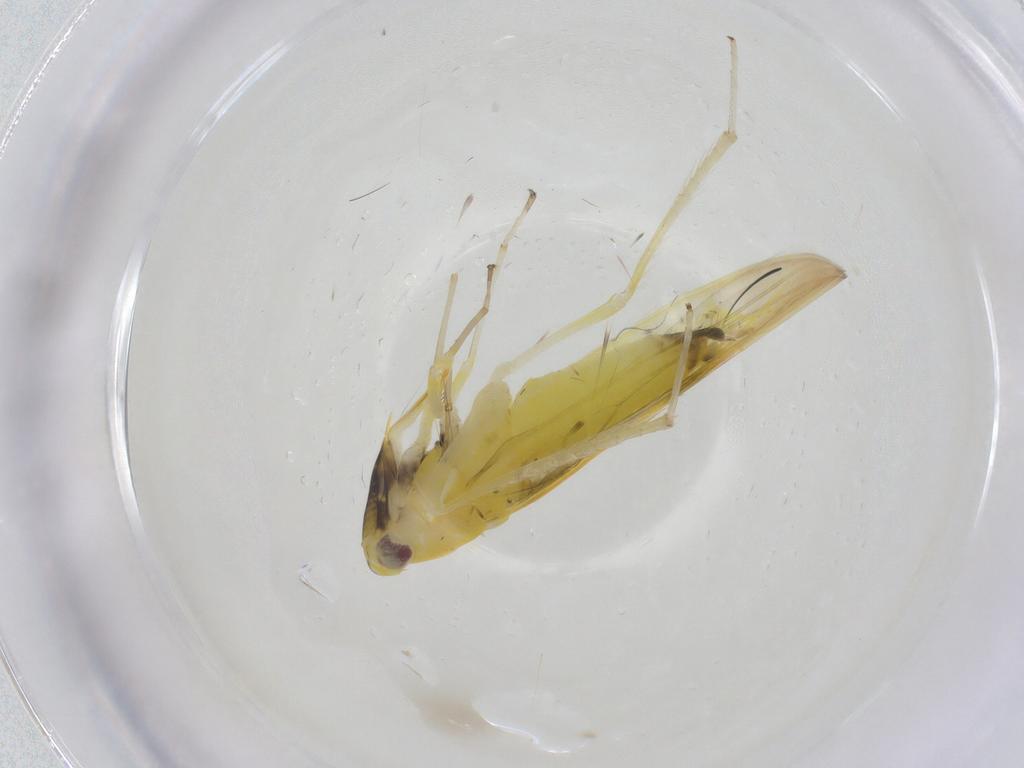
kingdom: Animalia
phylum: Arthropoda
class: Insecta
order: Hemiptera
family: Cicadellidae
